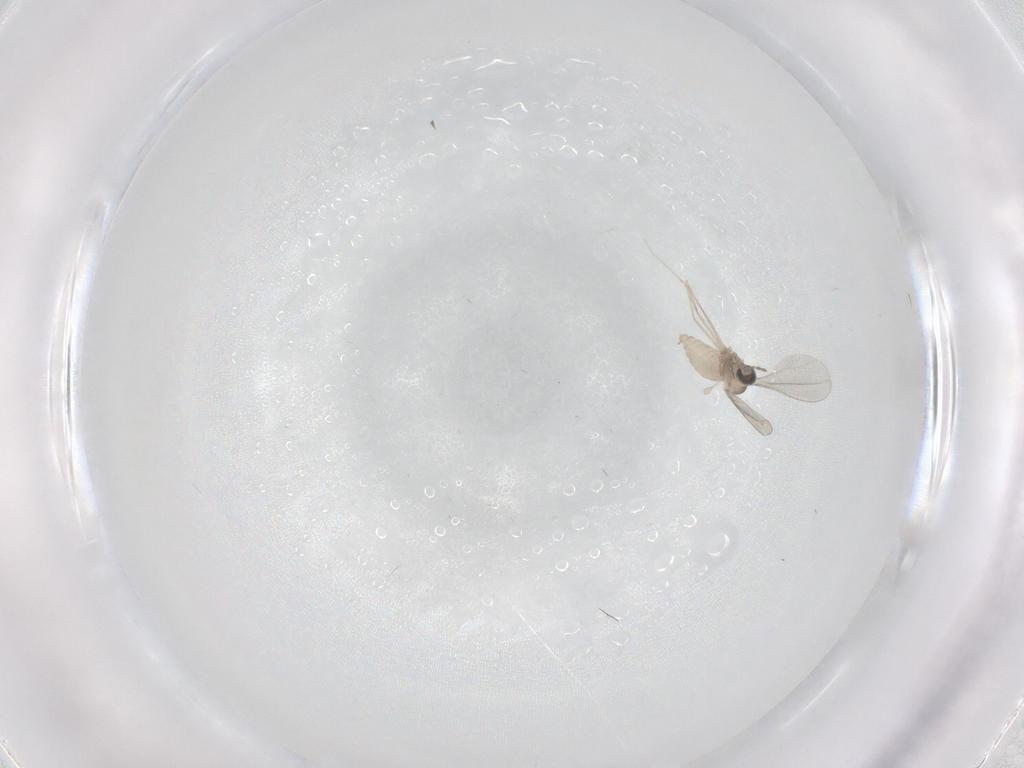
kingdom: Animalia
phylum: Arthropoda
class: Insecta
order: Diptera
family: Cecidomyiidae
